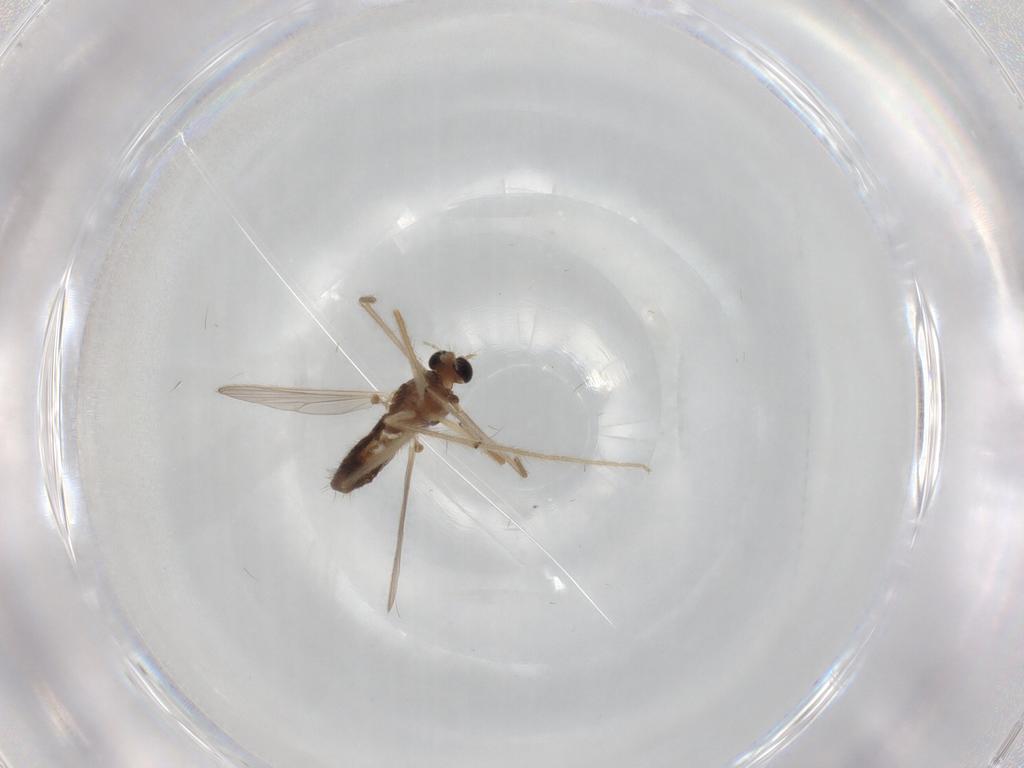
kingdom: Animalia
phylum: Arthropoda
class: Insecta
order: Diptera
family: Chironomidae
